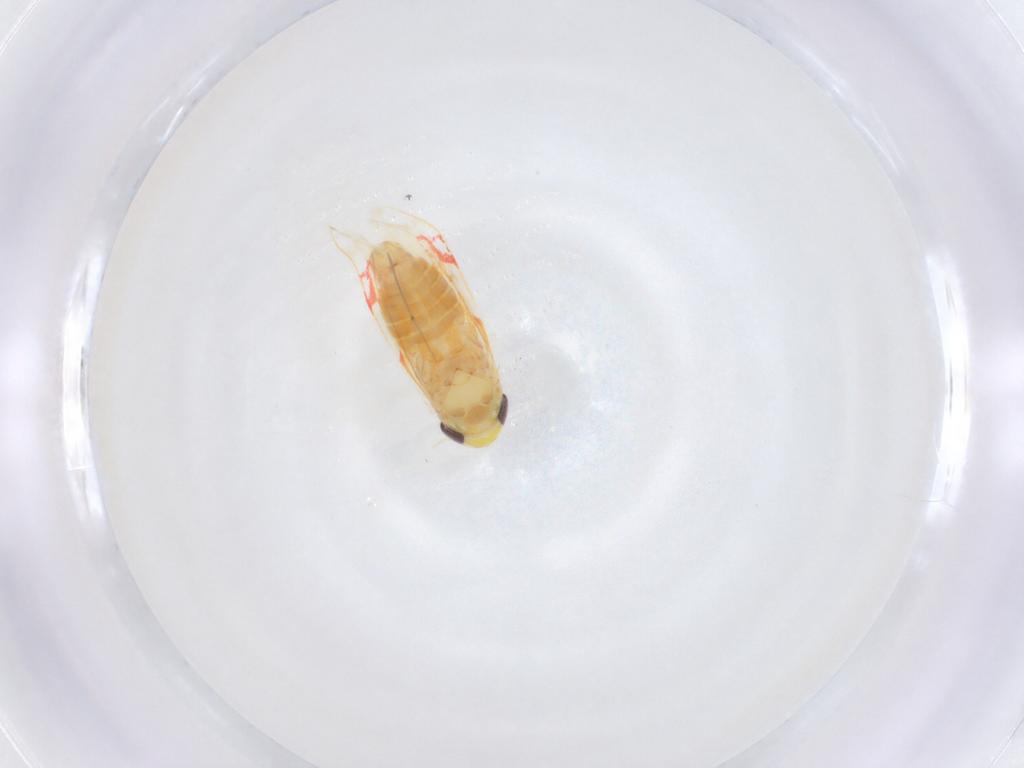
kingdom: Animalia
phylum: Arthropoda
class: Insecta
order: Hemiptera
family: Cicadellidae
